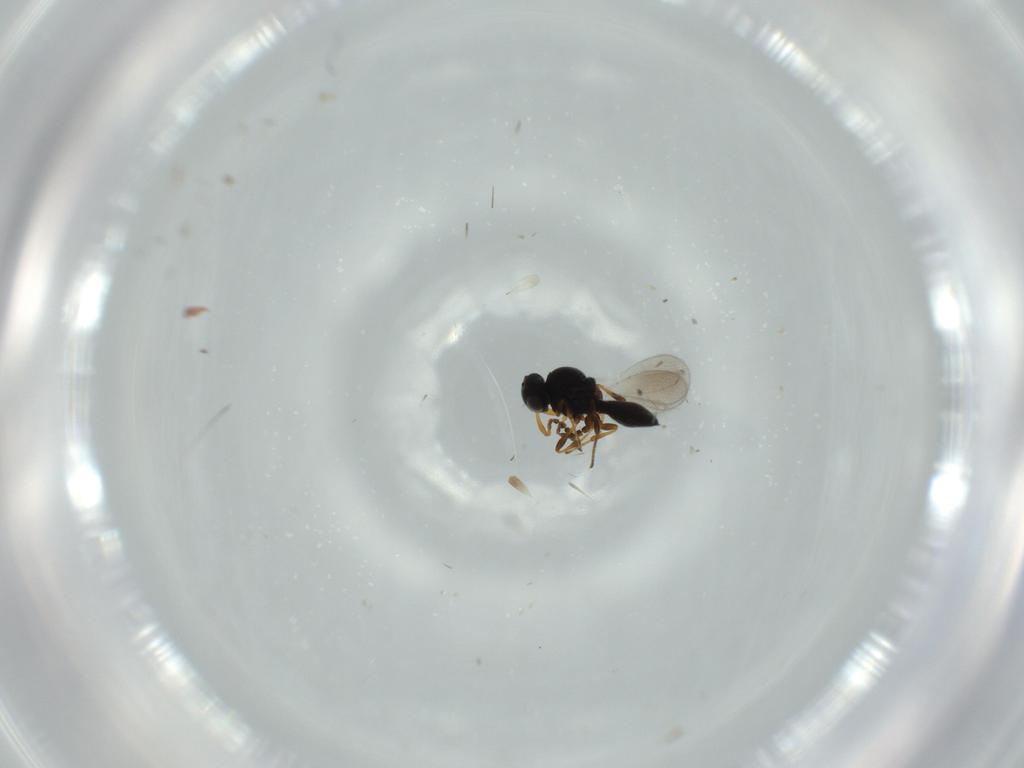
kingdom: Animalia
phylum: Arthropoda
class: Insecta
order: Hymenoptera
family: Platygastridae
